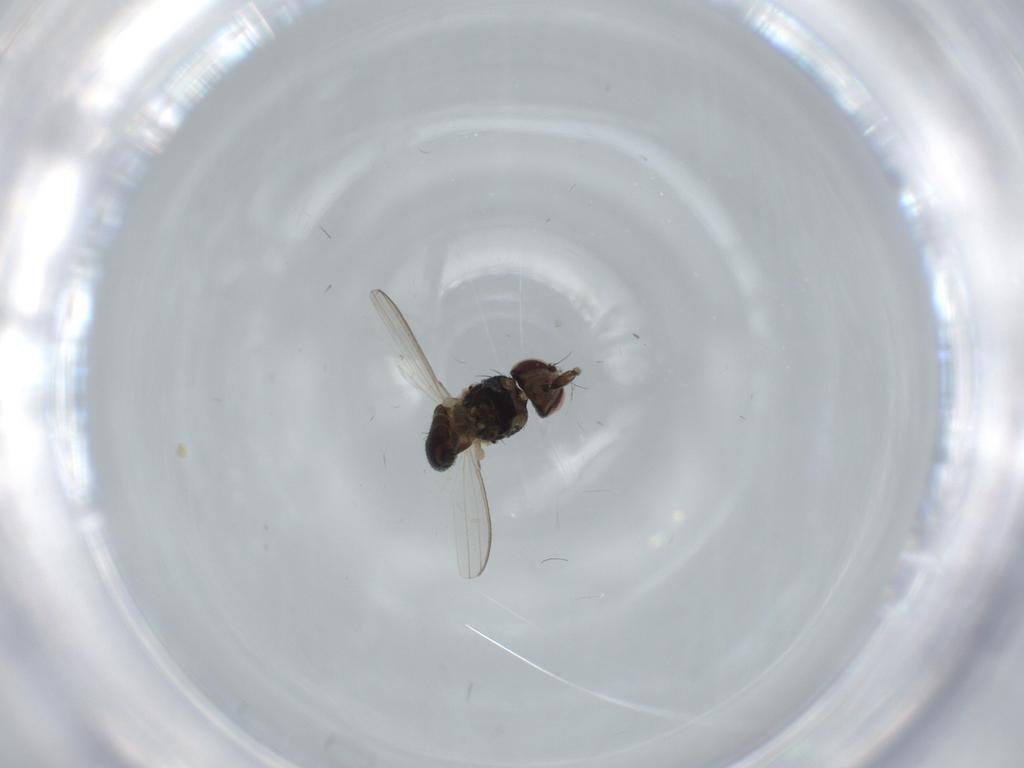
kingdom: Animalia
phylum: Arthropoda
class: Insecta
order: Diptera
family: Milichiidae
